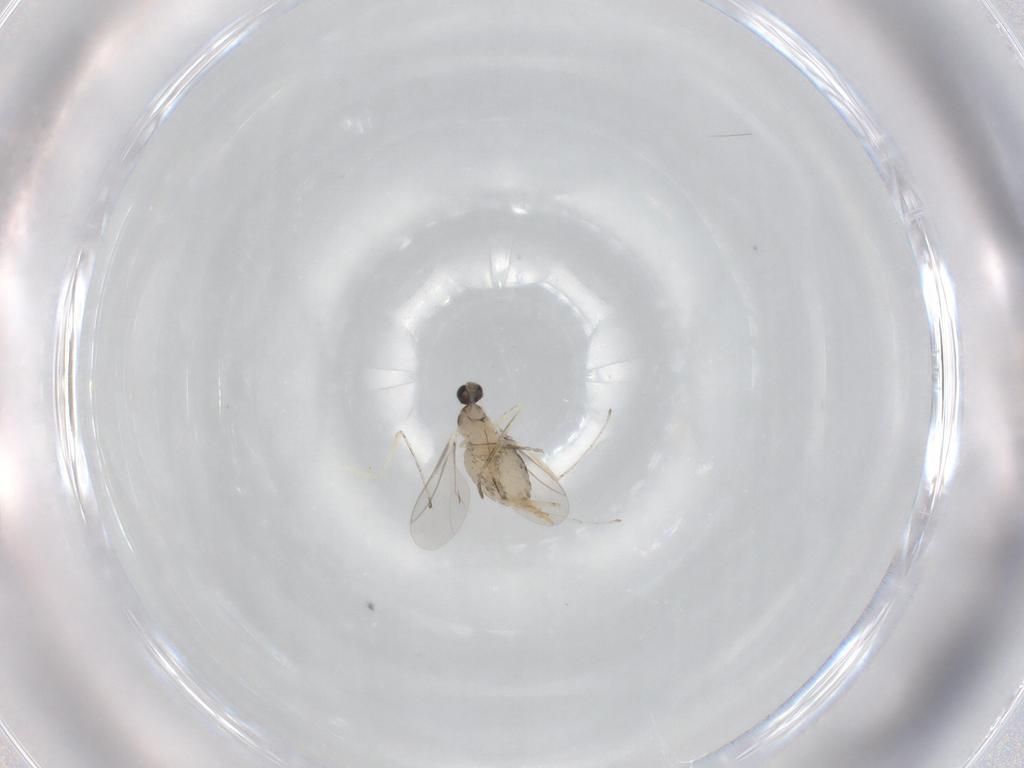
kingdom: Animalia
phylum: Arthropoda
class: Insecta
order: Diptera
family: Cecidomyiidae
